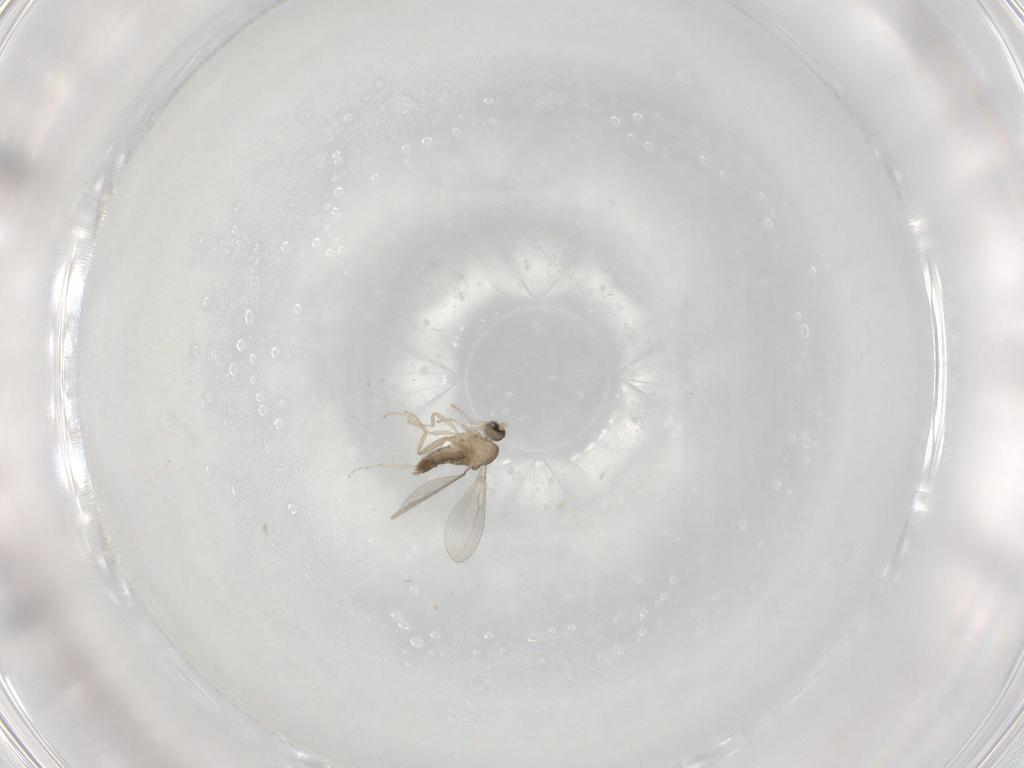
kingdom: Animalia
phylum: Arthropoda
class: Insecta
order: Diptera
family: Cecidomyiidae
